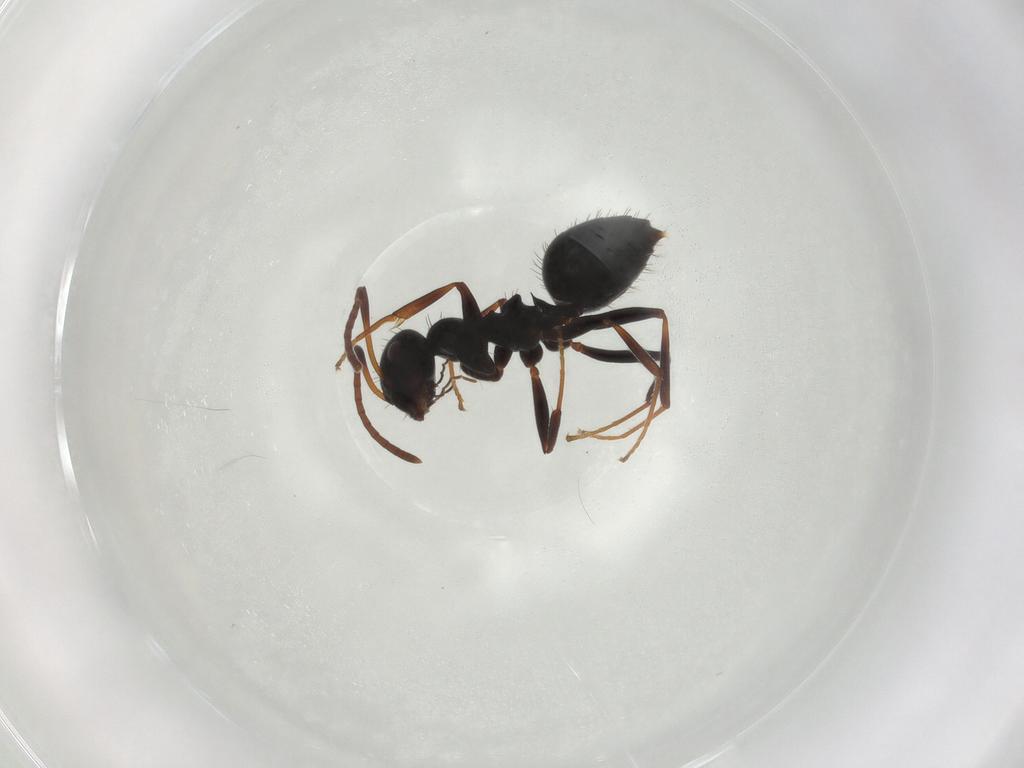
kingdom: Animalia
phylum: Arthropoda
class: Insecta
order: Hymenoptera
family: Formicidae
